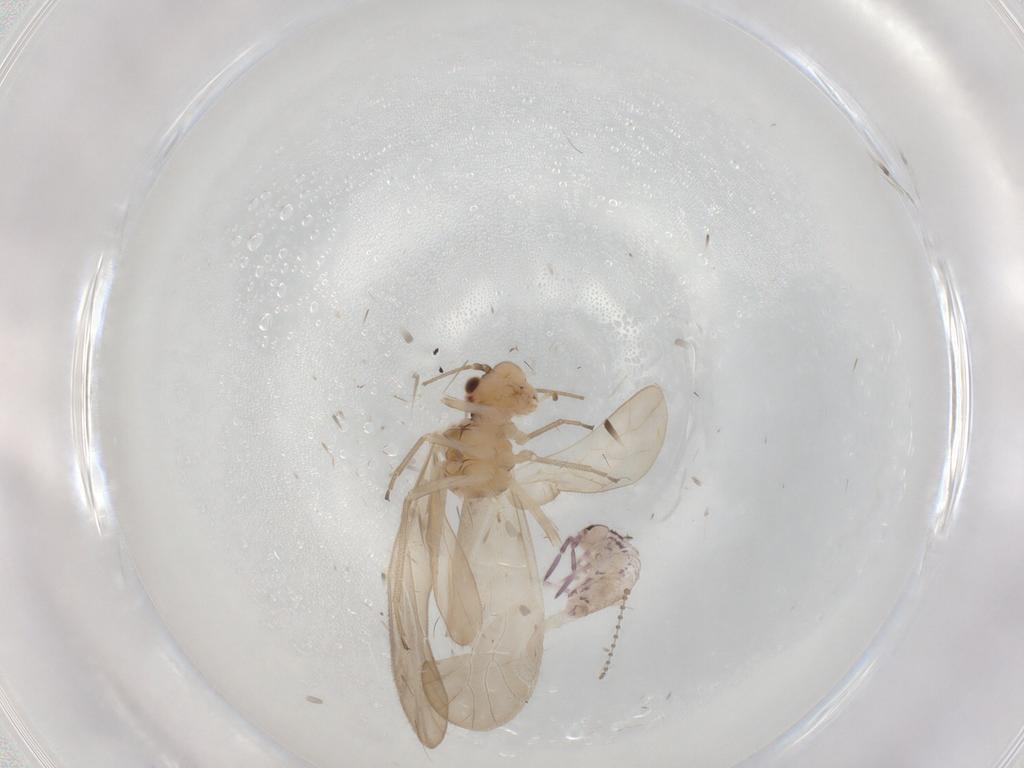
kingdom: Animalia
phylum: Arthropoda
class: Insecta
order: Psocodea
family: Caeciliusidae
